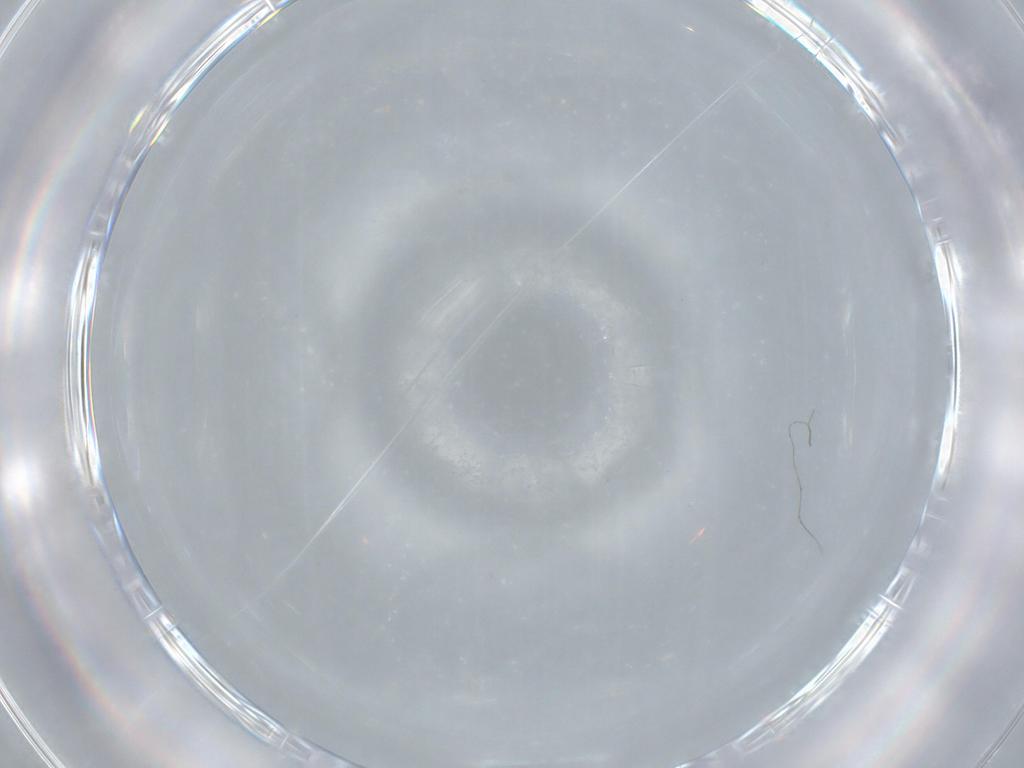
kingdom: Animalia
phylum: Arthropoda
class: Insecta
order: Diptera
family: Cecidomyiidae
